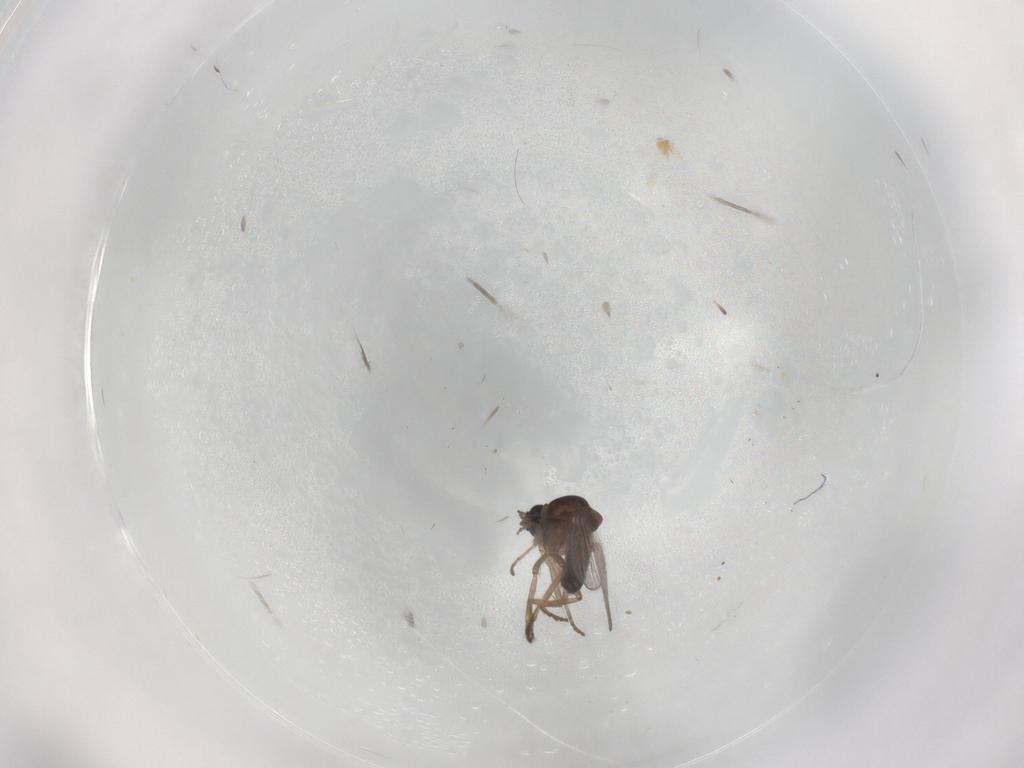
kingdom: Animalia
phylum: Arthropoda
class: Insecta
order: Diptera
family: Ceratopogonidae
